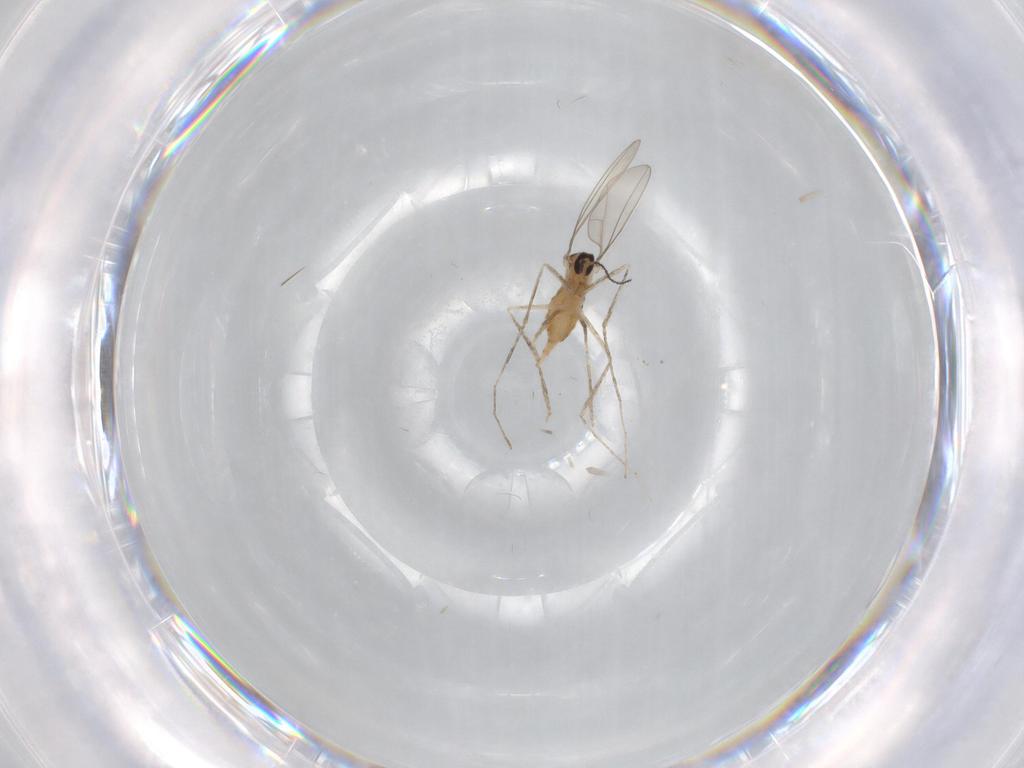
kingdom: Animalia
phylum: Arthropoda
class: Insecta
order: Diptera
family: Cecidomyiidae
